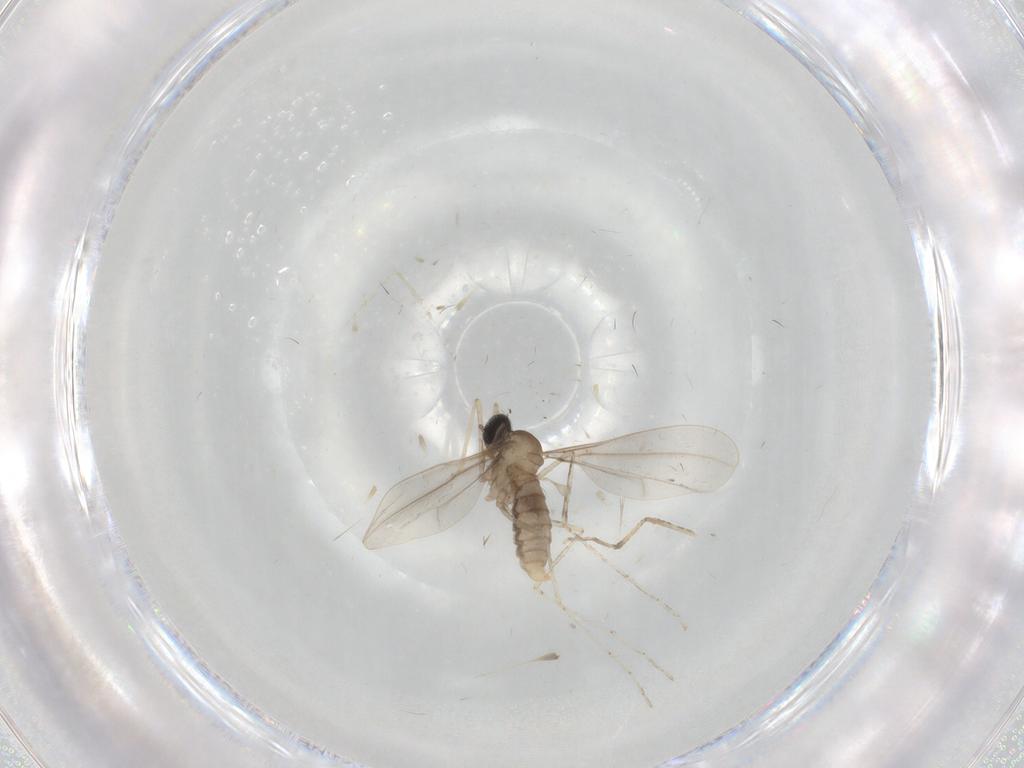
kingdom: Animalia
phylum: Arthropoda
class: Insecta
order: Diptera
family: Cecidomyiidae
